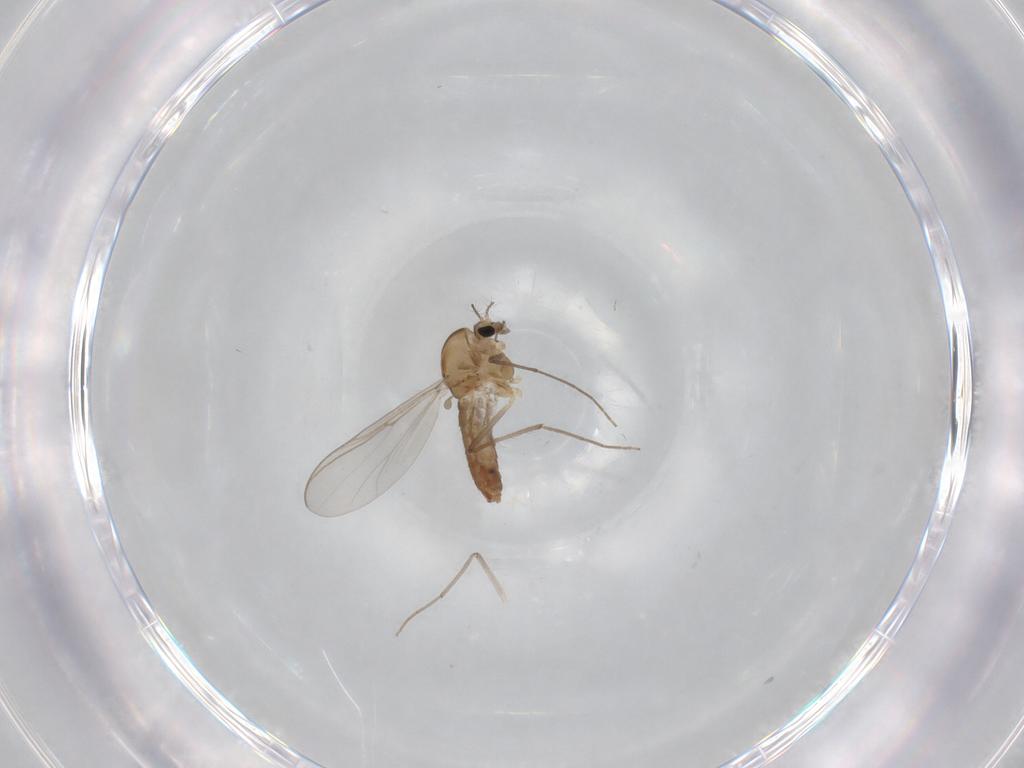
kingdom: Animalia
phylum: Arthropoda
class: Insecta
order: Diptera
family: Chironomidae
